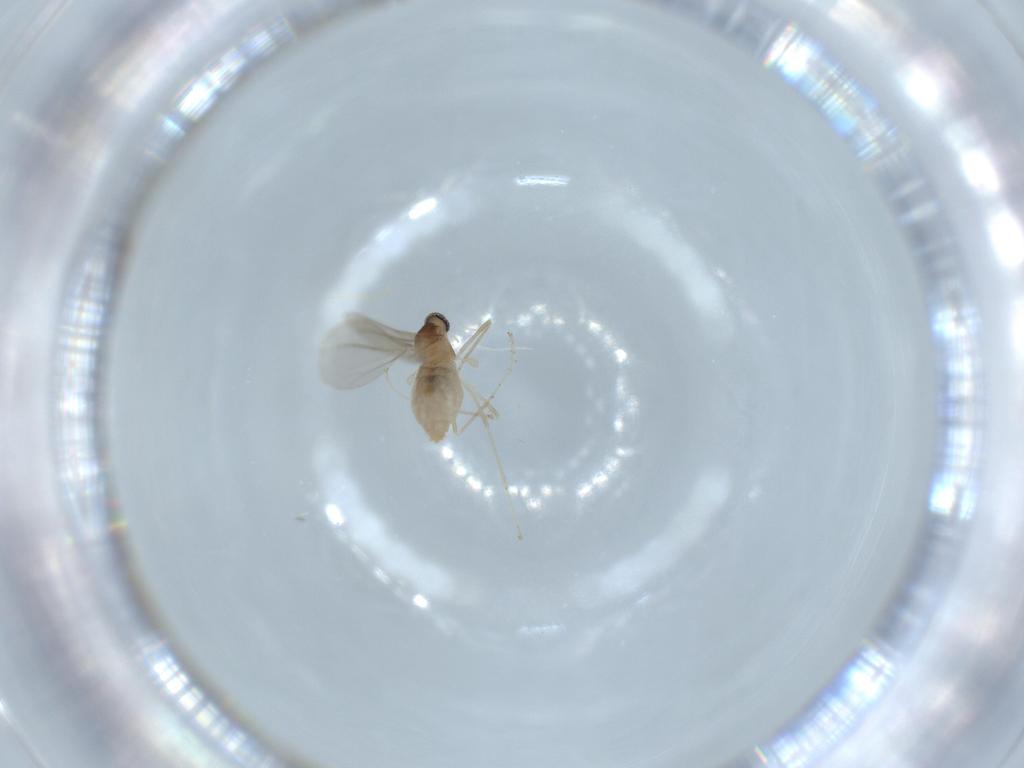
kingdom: Animalia
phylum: Arthropoda
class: Insecta
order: Diptera
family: Cecidomyiidae
